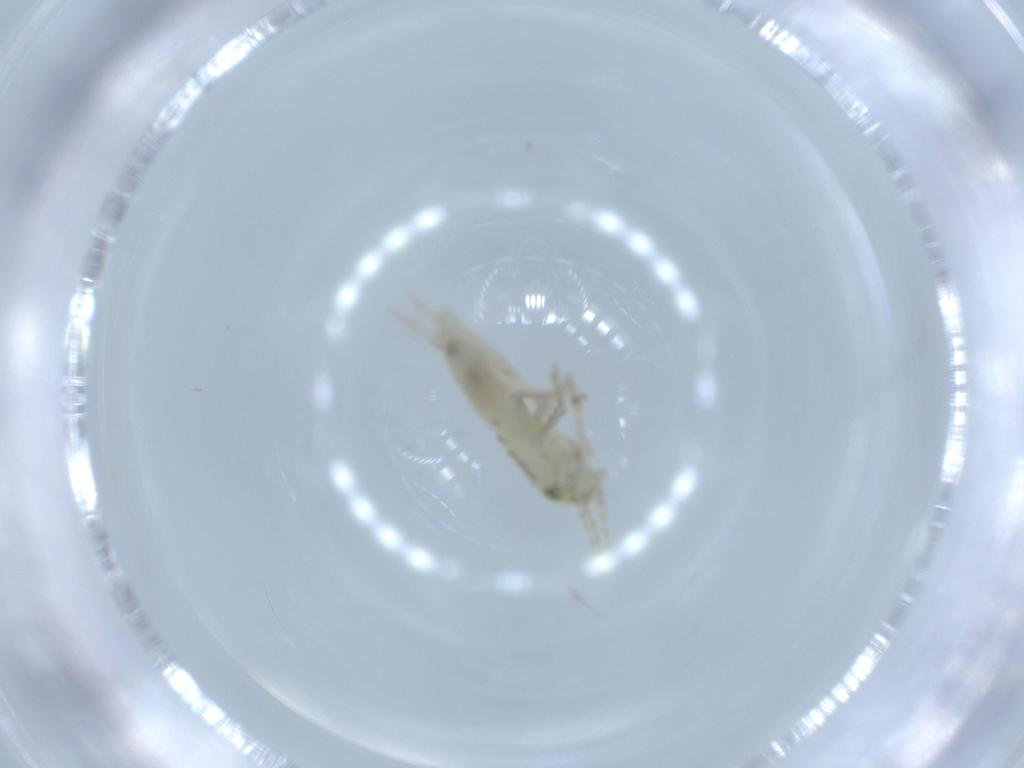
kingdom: Animalia
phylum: Arthropoda
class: Insecta
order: Orthoptera
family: Trigonidiidae
